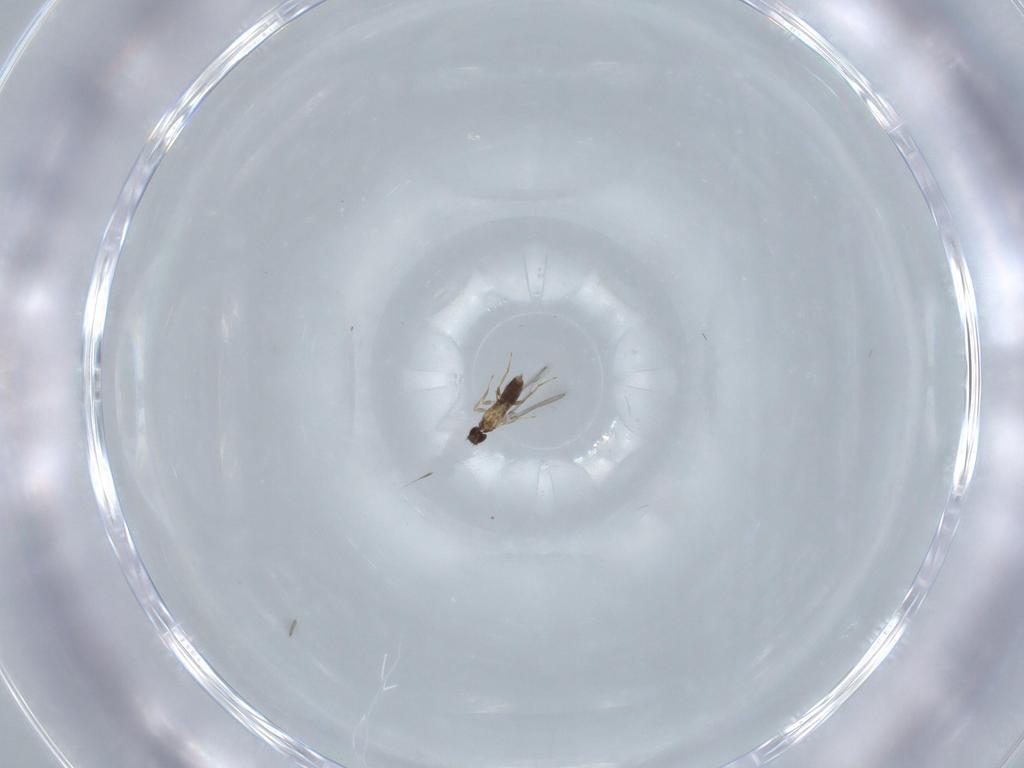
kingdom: Animalia
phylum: Arthropoda
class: Insecta
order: Hymenoptera
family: Mymaridae
